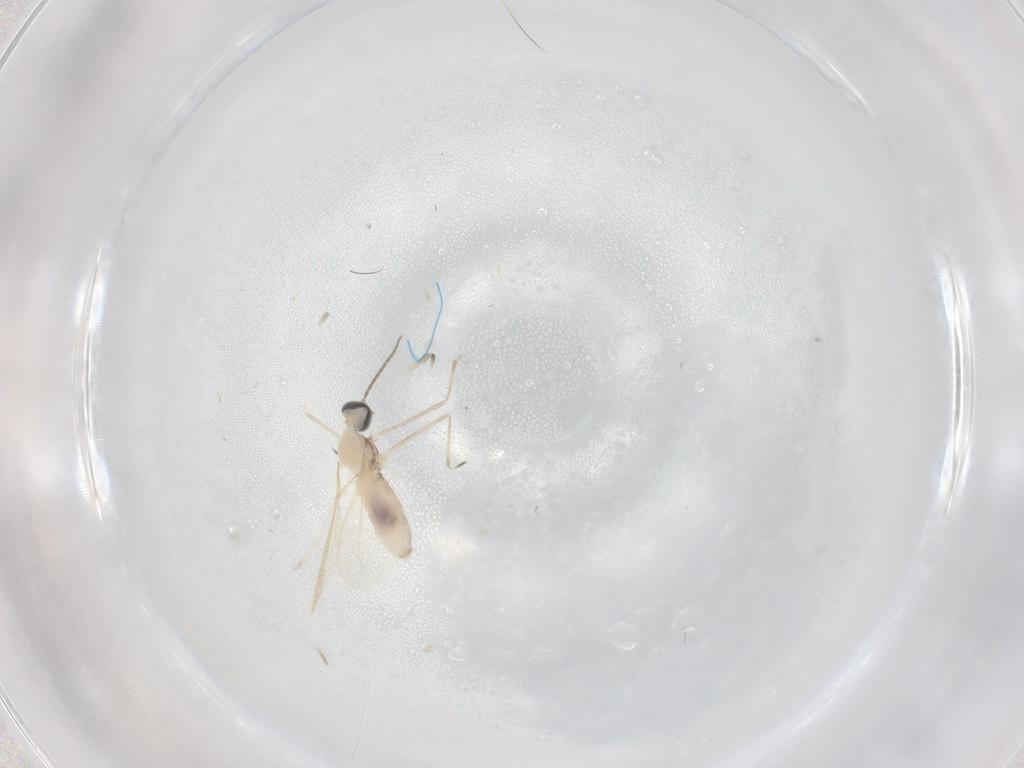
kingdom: Animalia
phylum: Arthropoda
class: Insecta
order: Diptera
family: Cecidomyiidae
